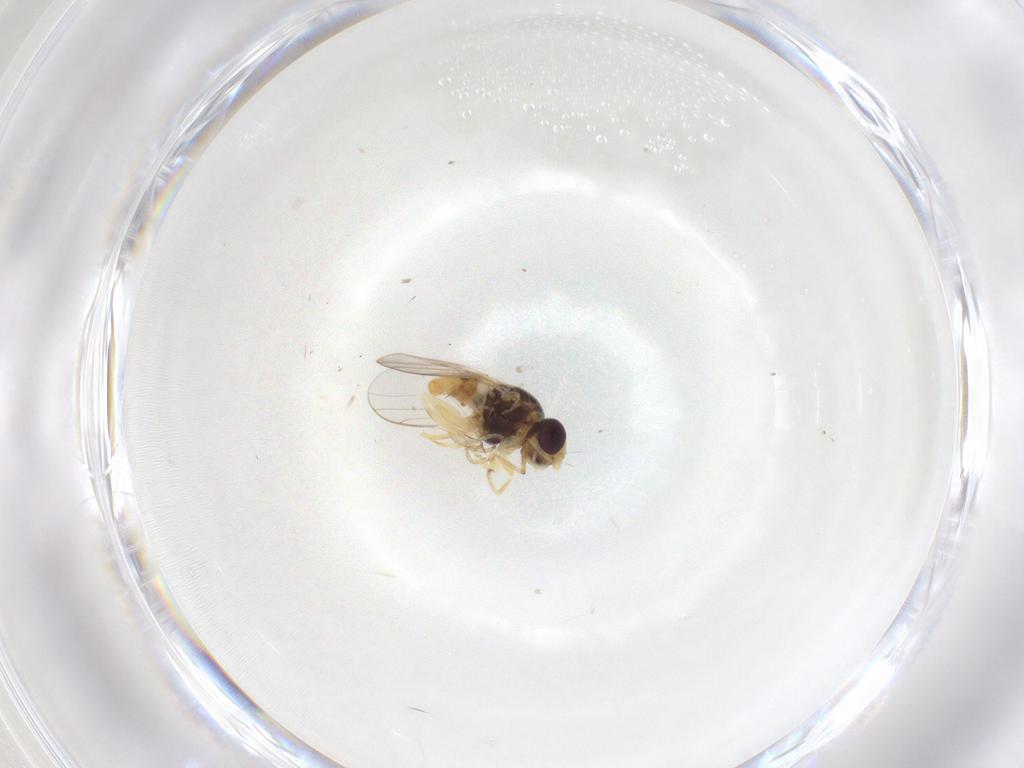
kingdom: Animalia
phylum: Arthropoda
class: Insecta
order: Diptera
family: Chloropidae
